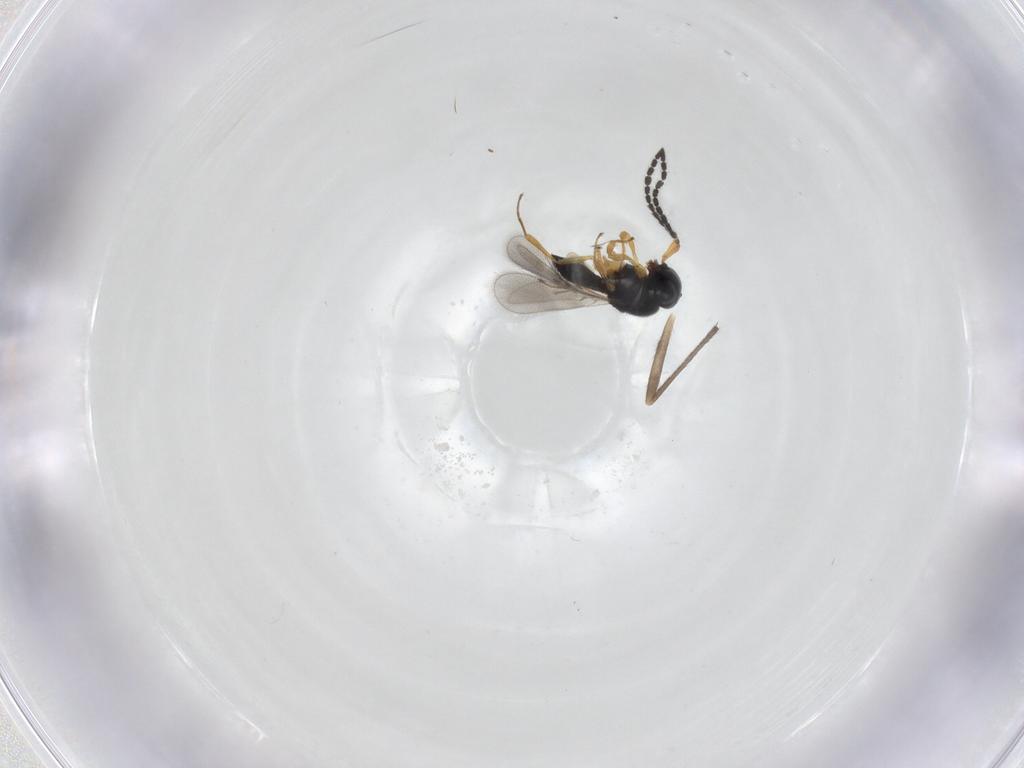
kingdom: Animalia
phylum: Arthropoda
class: Insecta
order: Hymenoptera
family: Scelionidae
